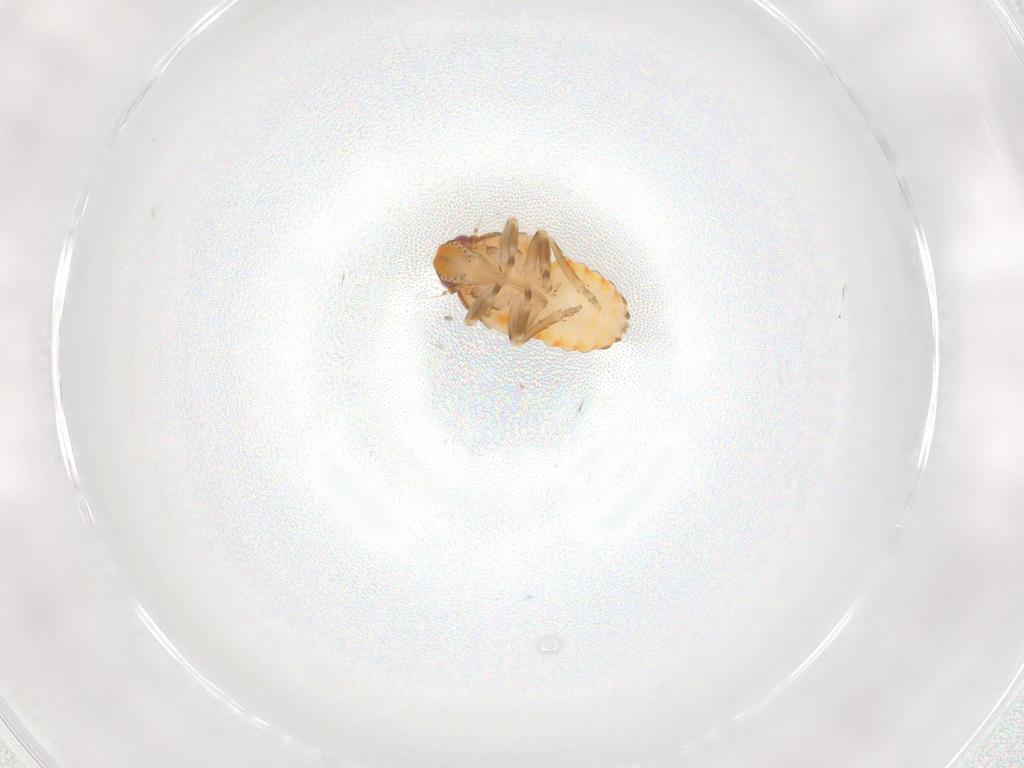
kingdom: Animalia
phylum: Arthropoda
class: Insecta
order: Hemiptera
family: Flatidae
